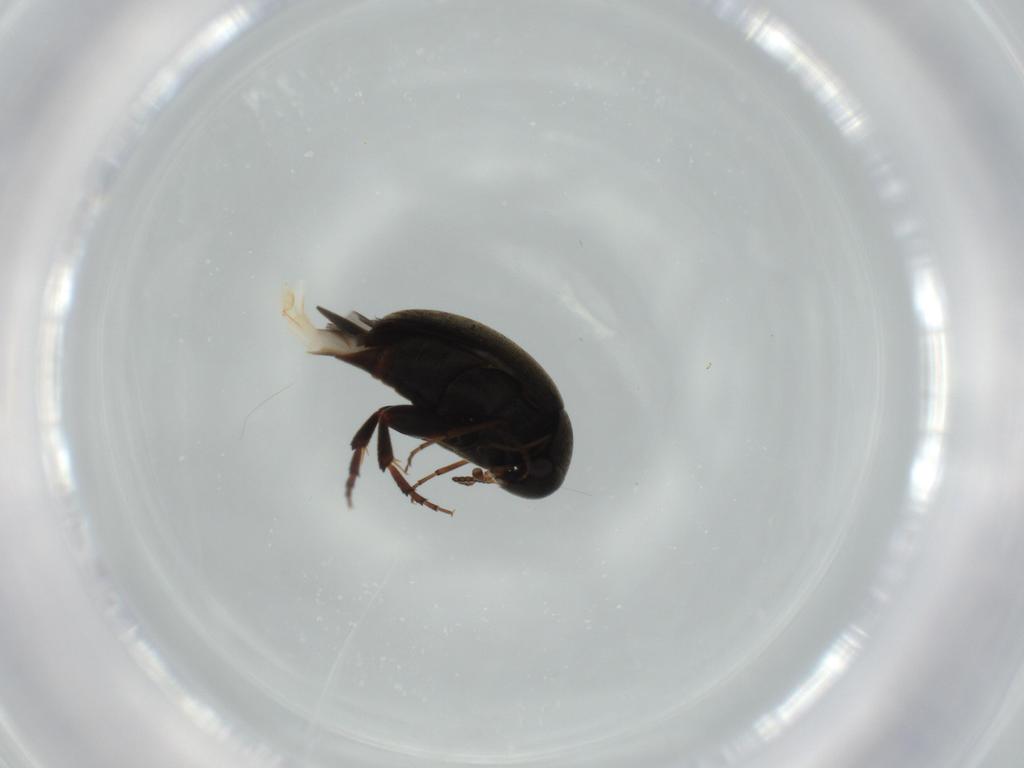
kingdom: Animalia
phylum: Arthropoda
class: Insecta
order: Coleoptera
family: Mordellidae
